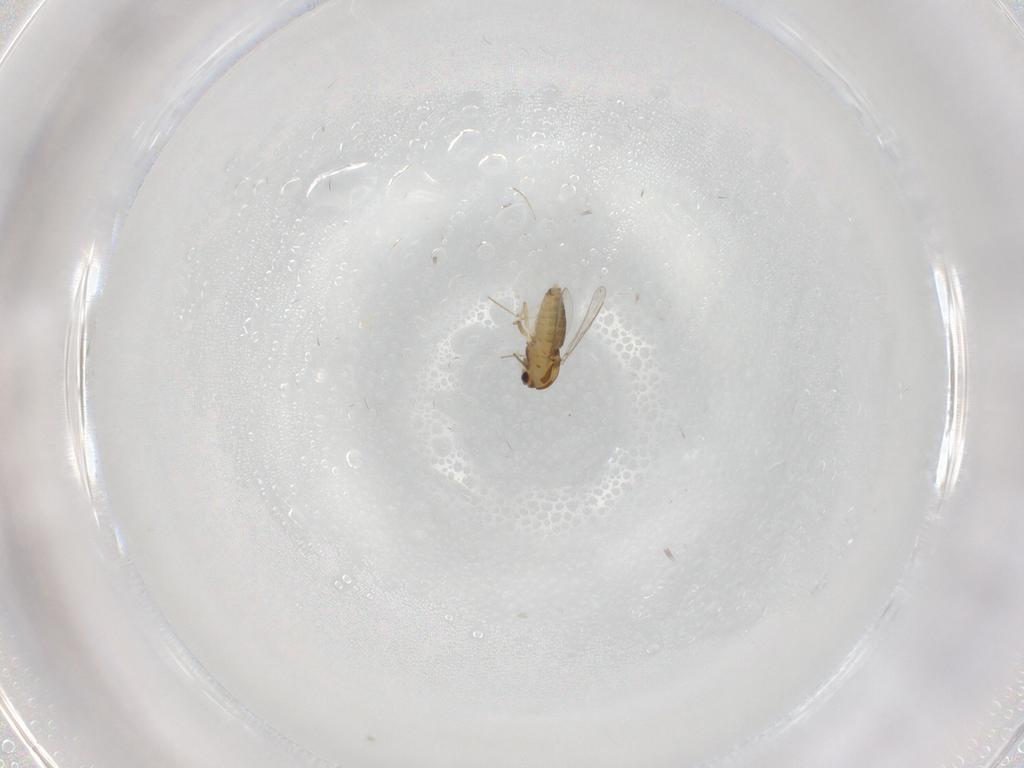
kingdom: Animalia
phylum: Arthropoda
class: Insecta
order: Diptera
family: Chironomidae
